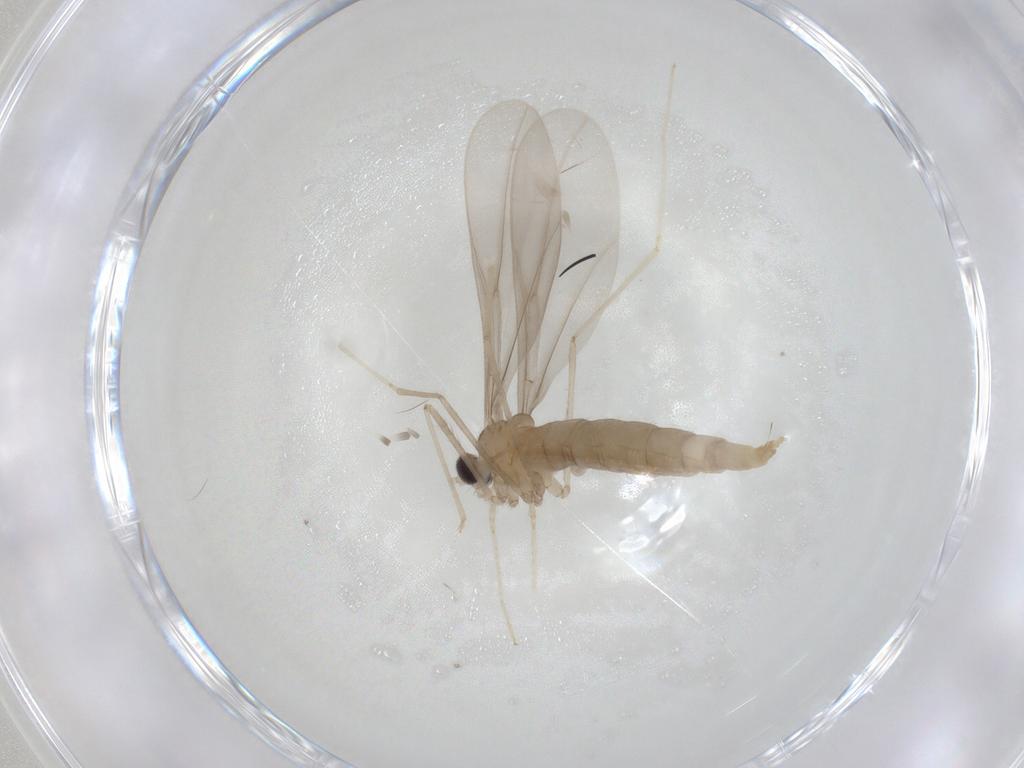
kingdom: Animalia
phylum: Arthropoda
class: Insecta
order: Diptera
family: Cecidomyiidae
